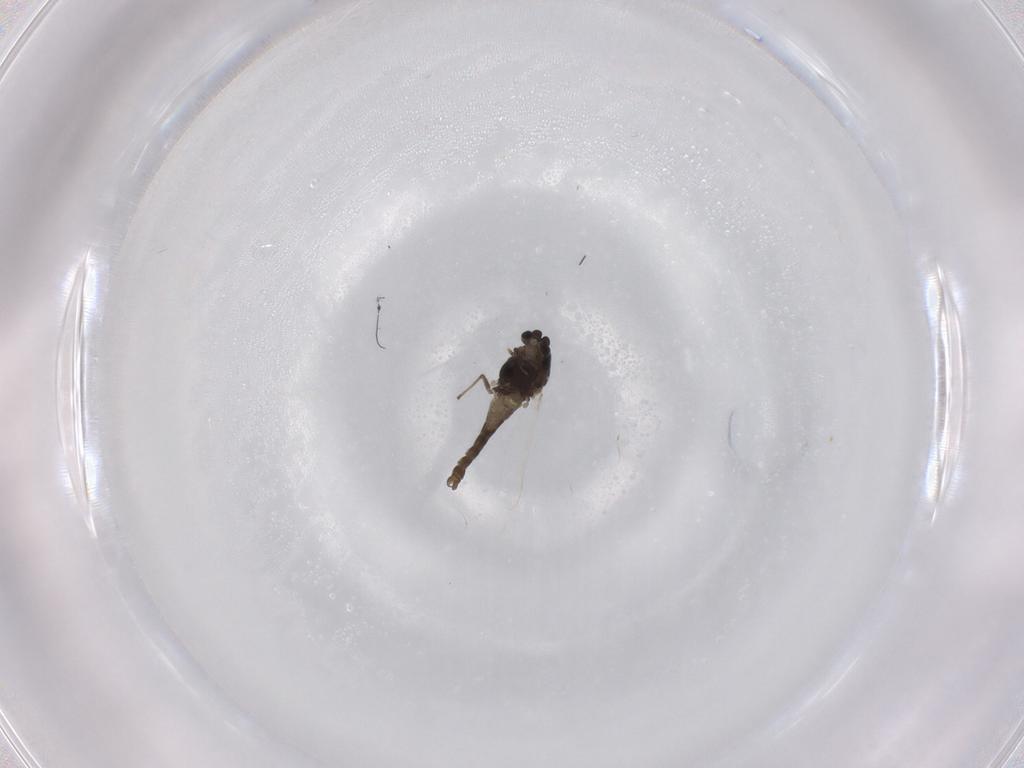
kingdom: Animalia
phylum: Arthropoda
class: Insecta
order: Diptera
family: Chironomidae
